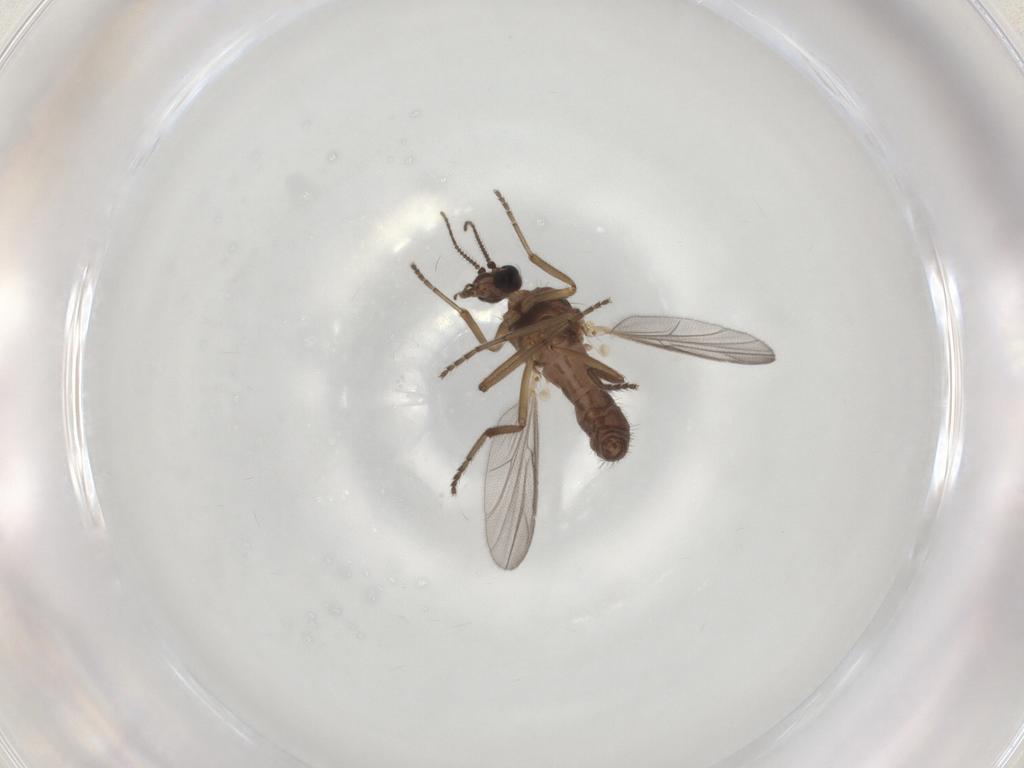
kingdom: Animalia
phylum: Arthropoda
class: Insecta
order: Diptera
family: Ceratopogonidae
